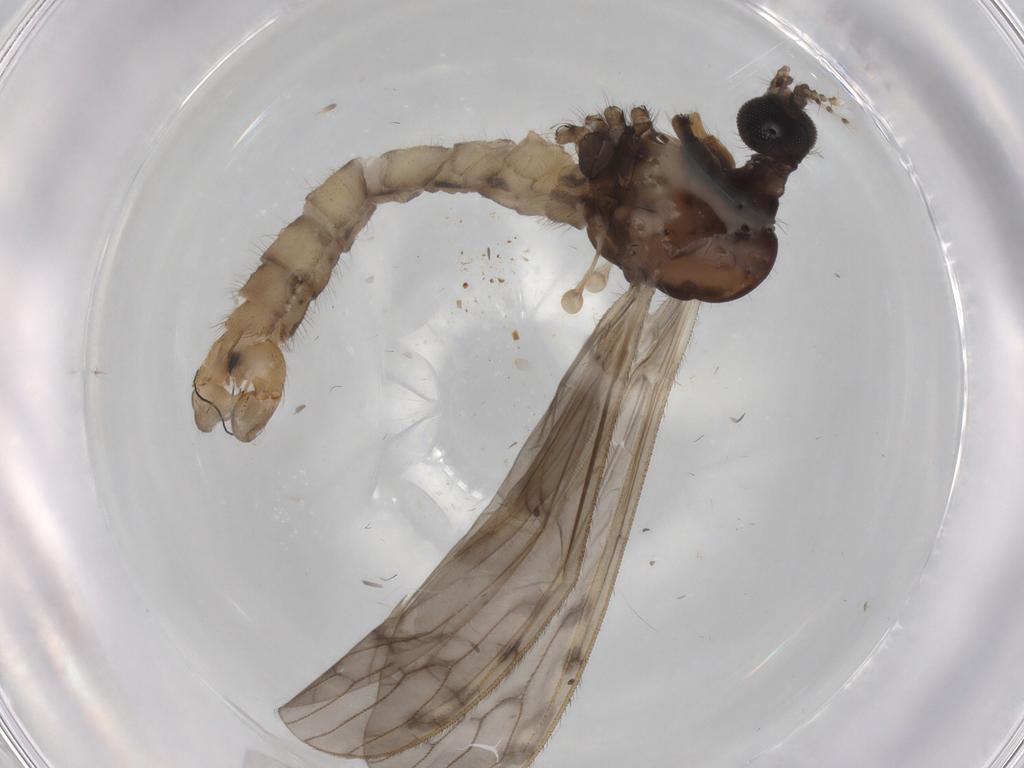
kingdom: Animalia
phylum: Arthropoda
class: Insecta
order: Diptera
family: Phoridae
